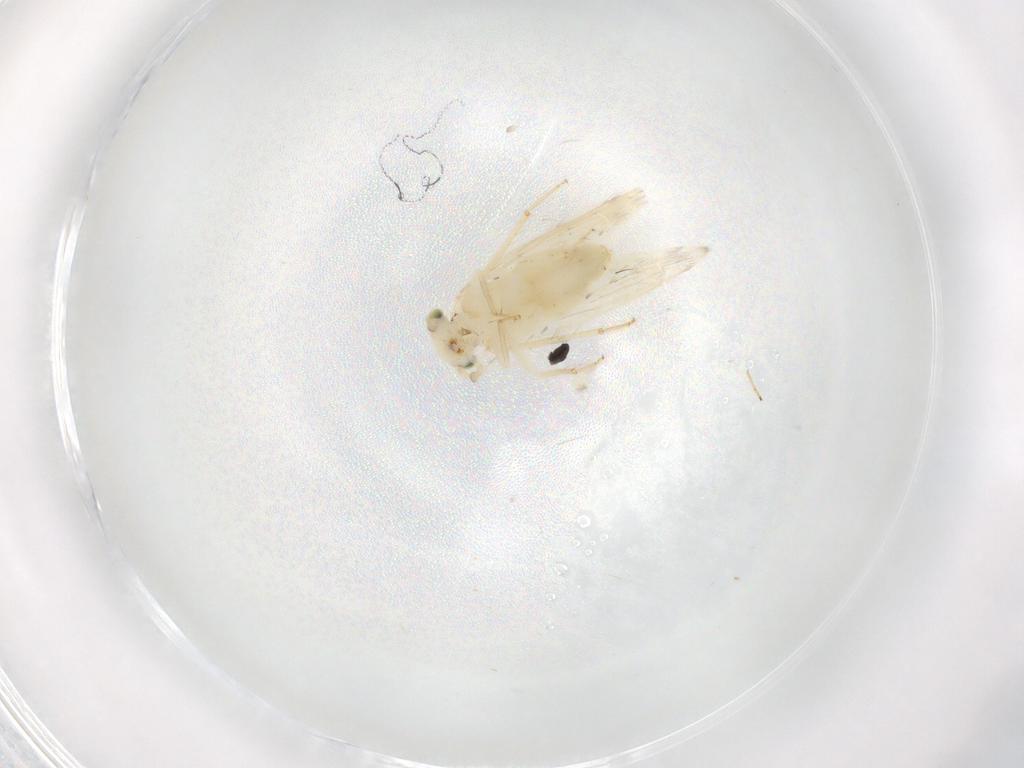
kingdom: Animalia
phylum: Arthropoda
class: Insecta
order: Psocodea
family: Lepidopsocidae
